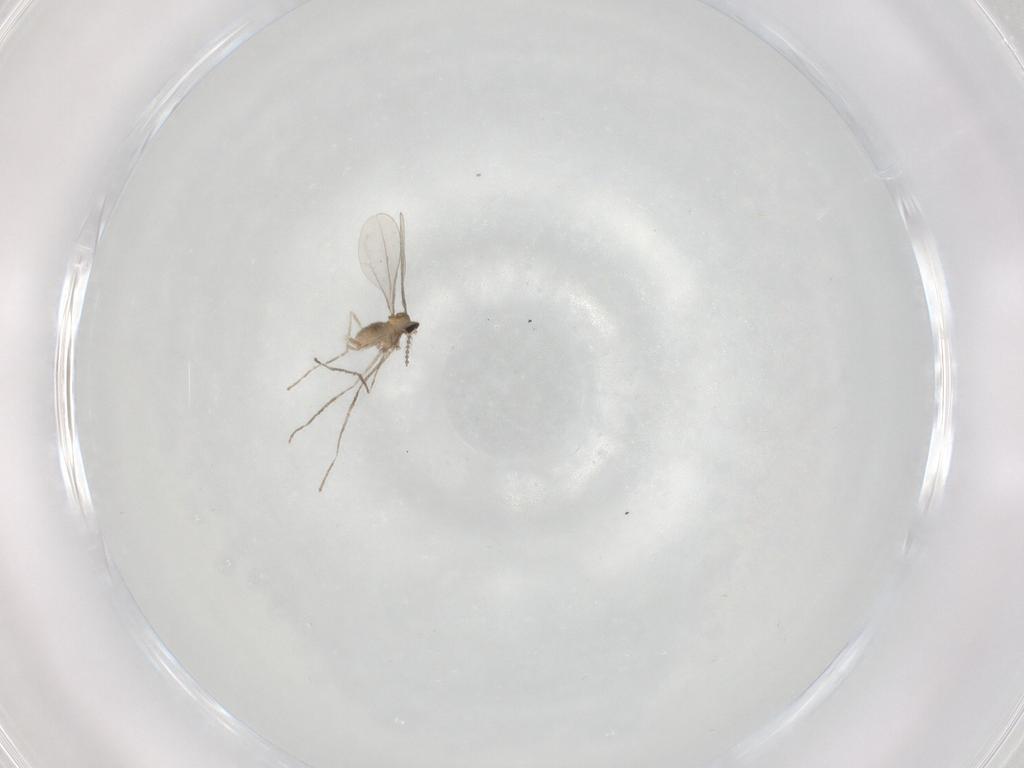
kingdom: Animalia
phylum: Arthropoda
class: Insecta
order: Diptera
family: Cecidomyiidae
